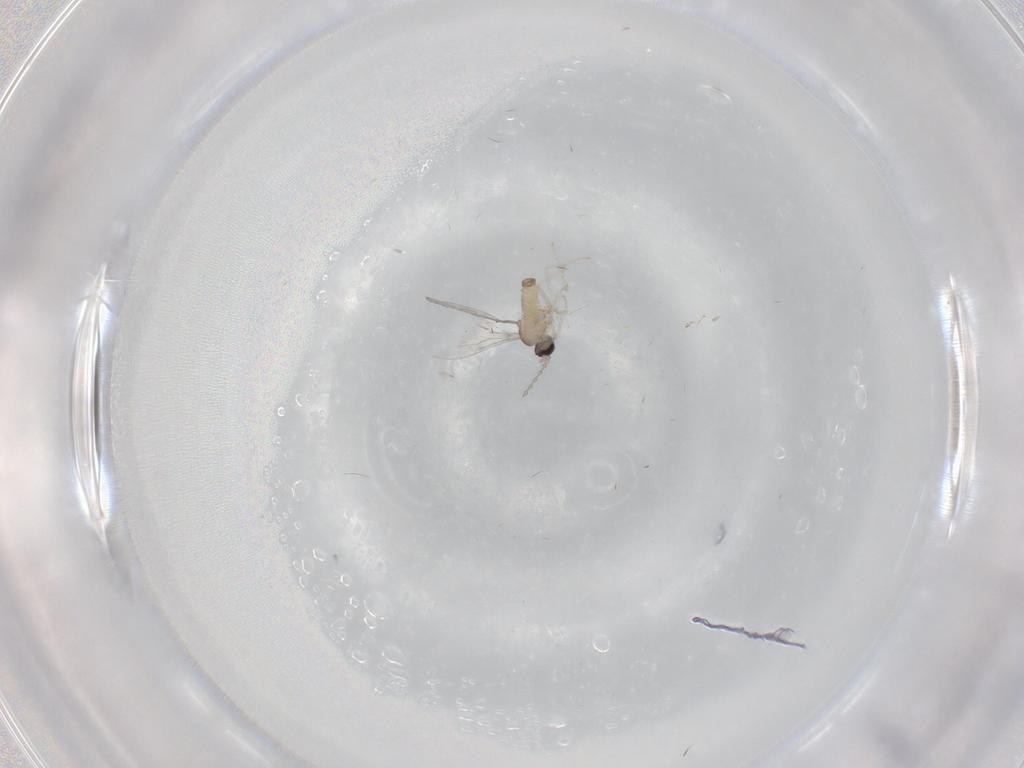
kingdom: Animalia
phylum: Arthropoda
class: Insecta
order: Diptera
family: Cecidomyiidae
